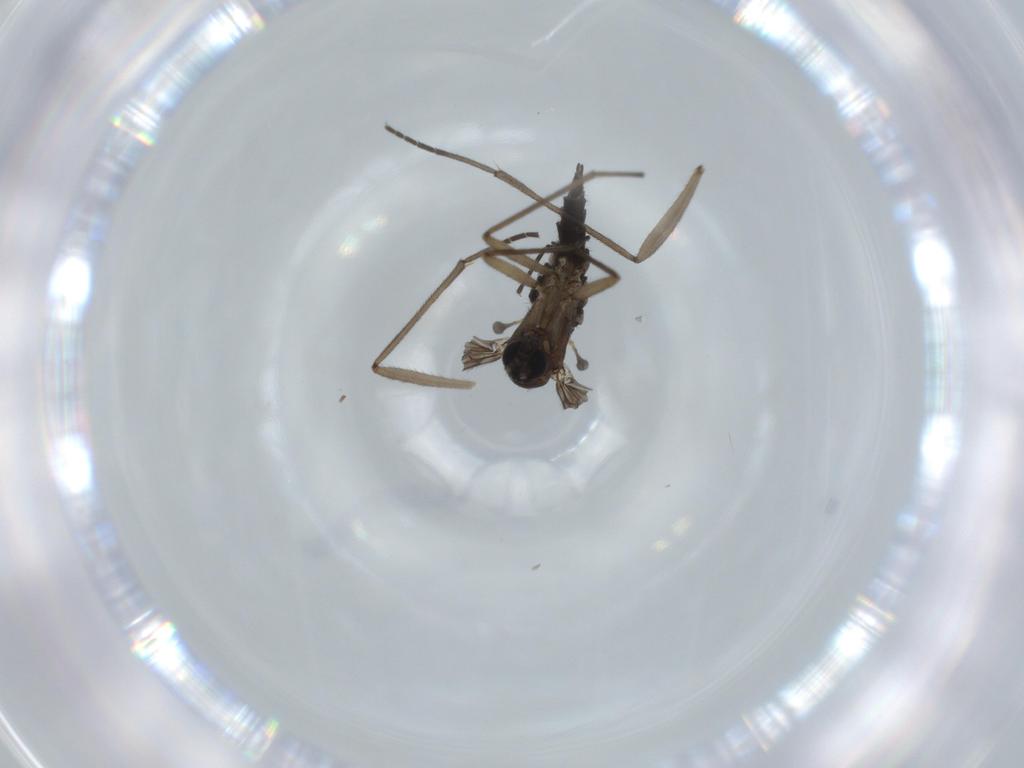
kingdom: Animalia
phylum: Arthropoda
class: Insecta
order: Diptera
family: Sciaridae
